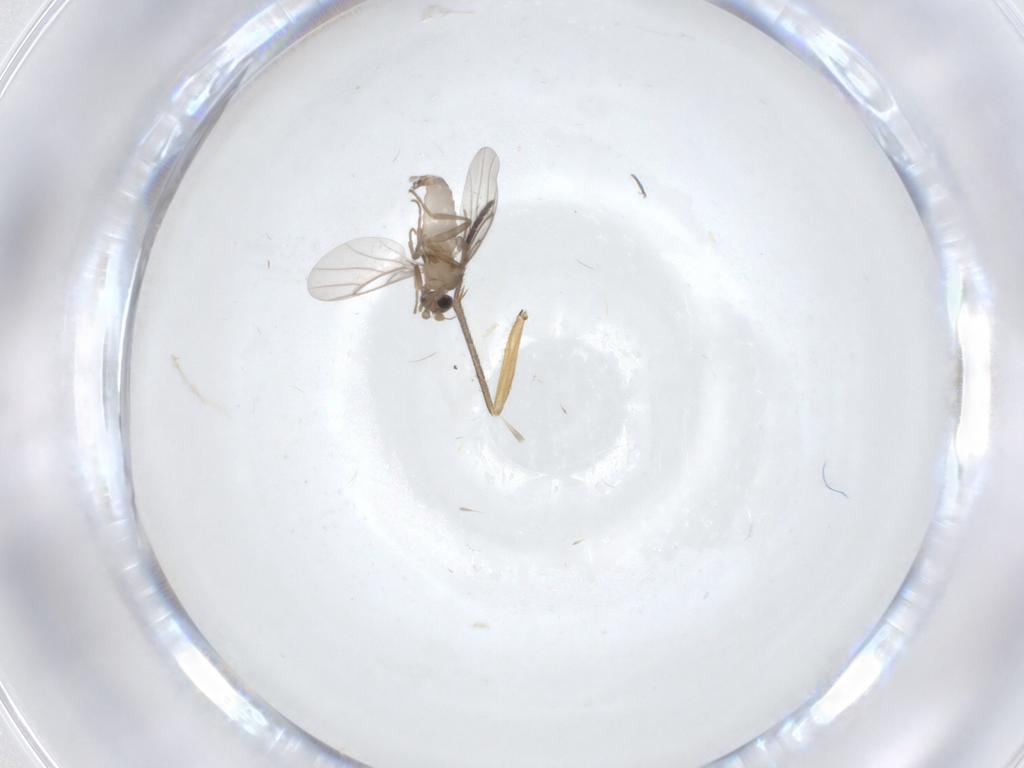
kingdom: Animalia
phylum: Arthropoda
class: Insecta
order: Diptera
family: Sciaridae
